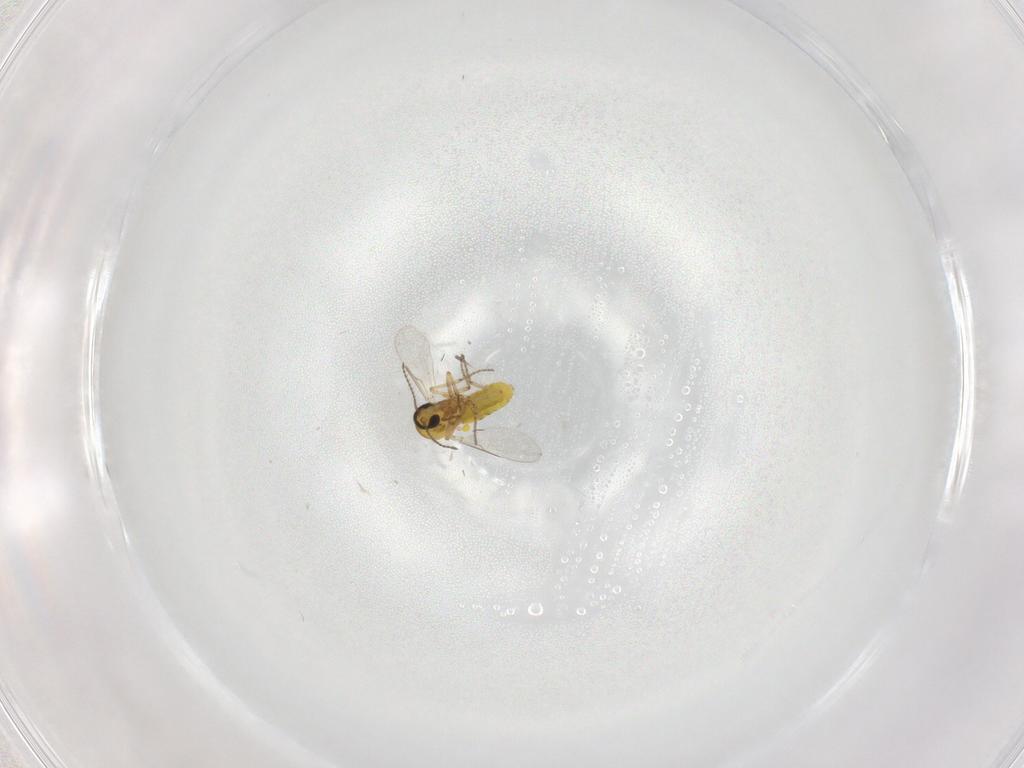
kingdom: Animalia
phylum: Arthropoda
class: Insecta
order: Diptera
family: Ceratopogonidae
